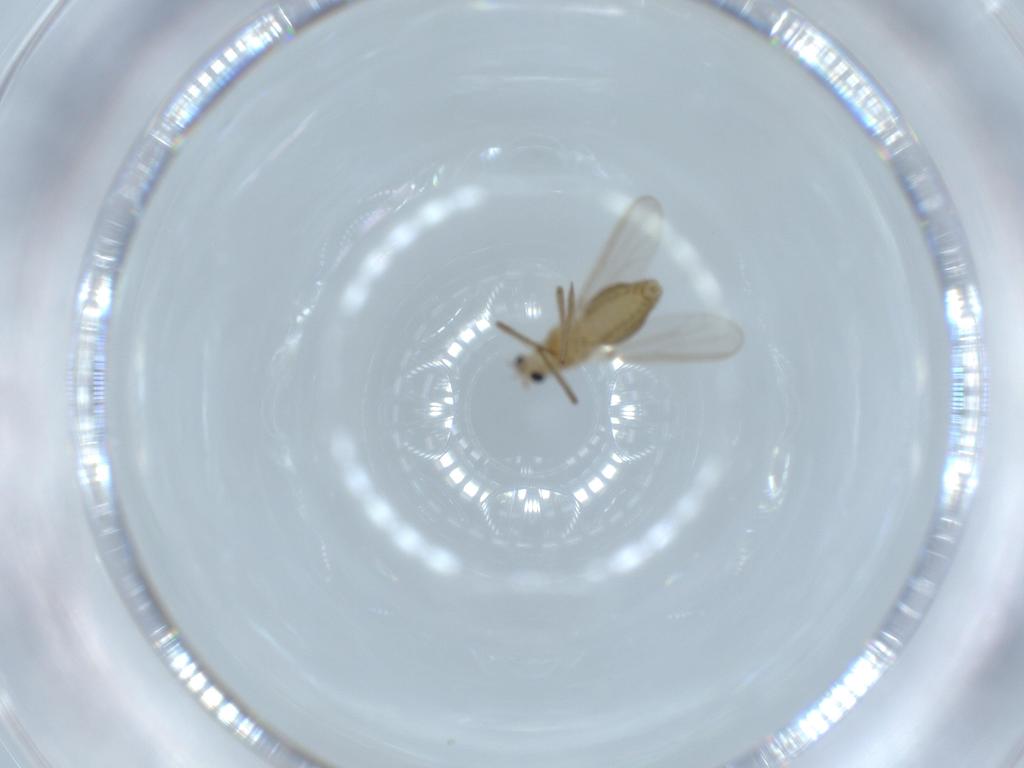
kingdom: Animalia
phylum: Arthropoda
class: Insecta
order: Diptera
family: Chironomidae
